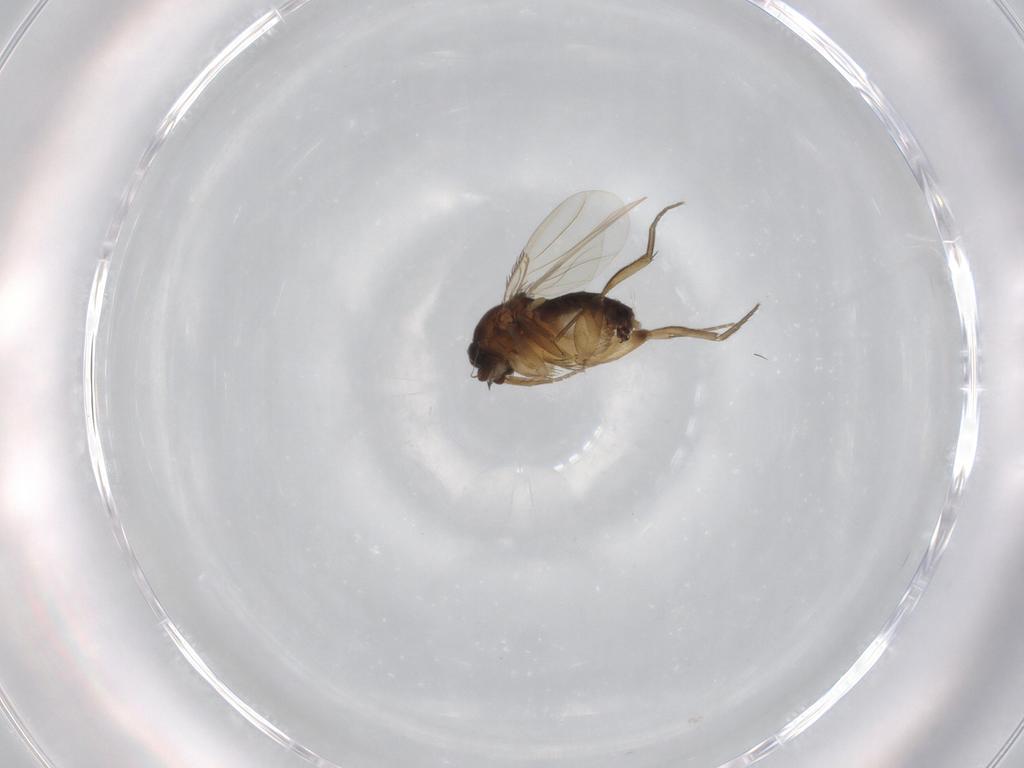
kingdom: Animalia
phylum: Arthropoda
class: Insecta
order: Diptera
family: Phoridae
